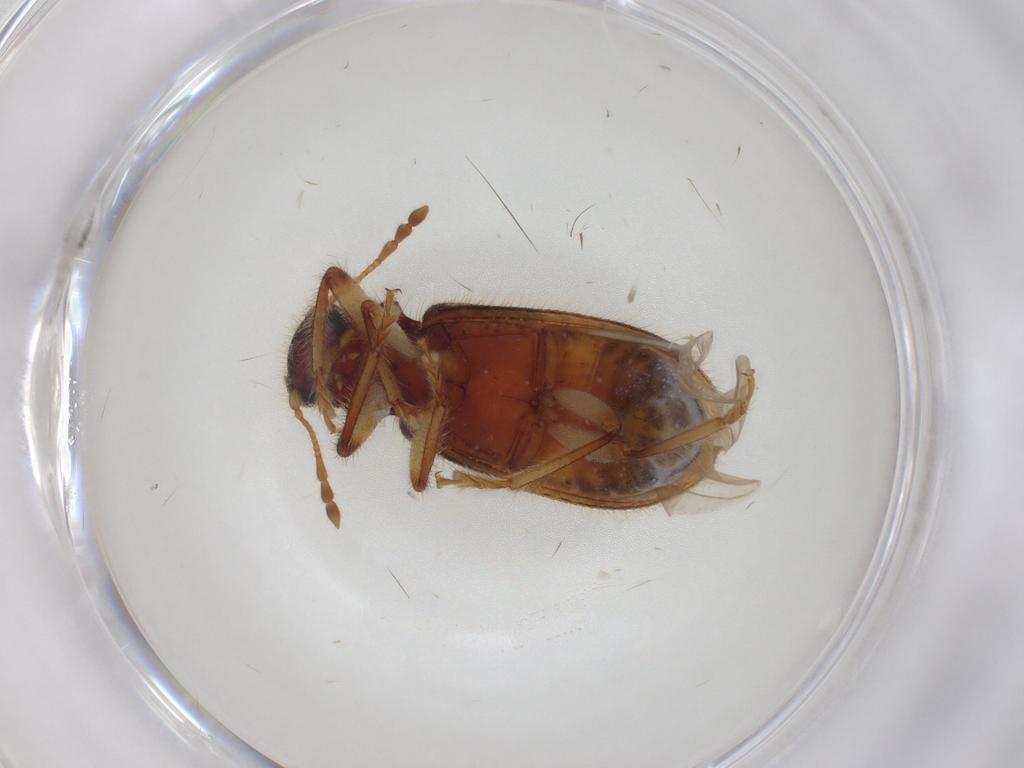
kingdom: Animalia
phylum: Arthropoda
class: Insecta
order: Coleoptera
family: Cleridae
